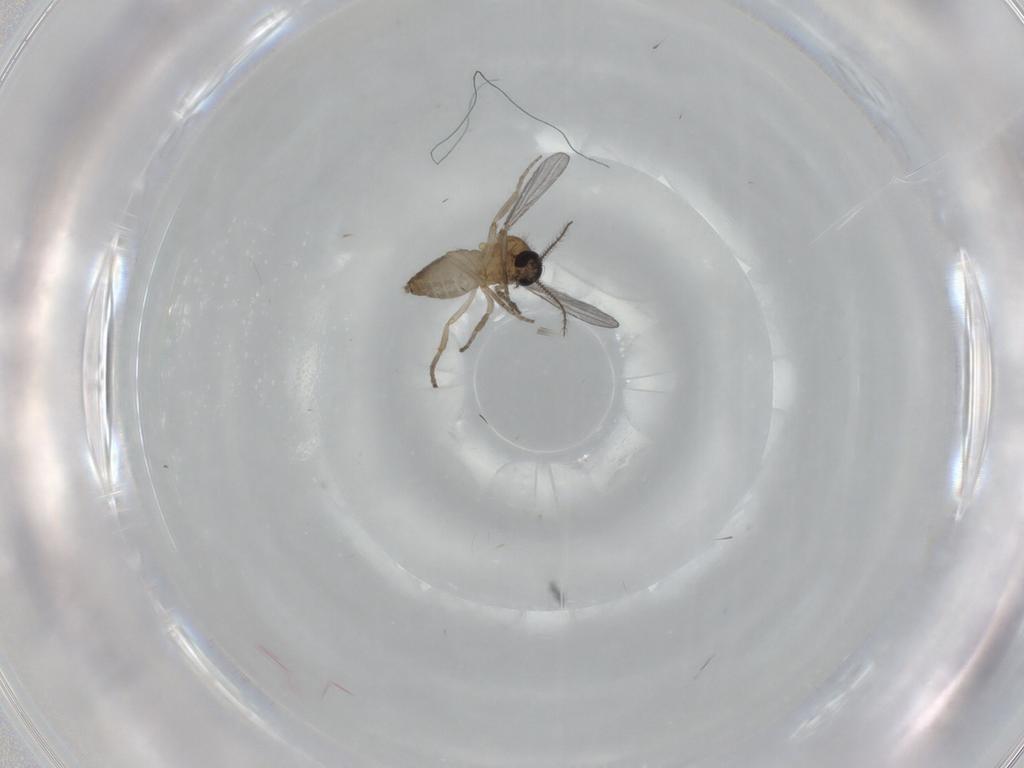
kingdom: Animalia
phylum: Arthropoda
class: Insecta
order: Diptera
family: Ceratopogonidae
